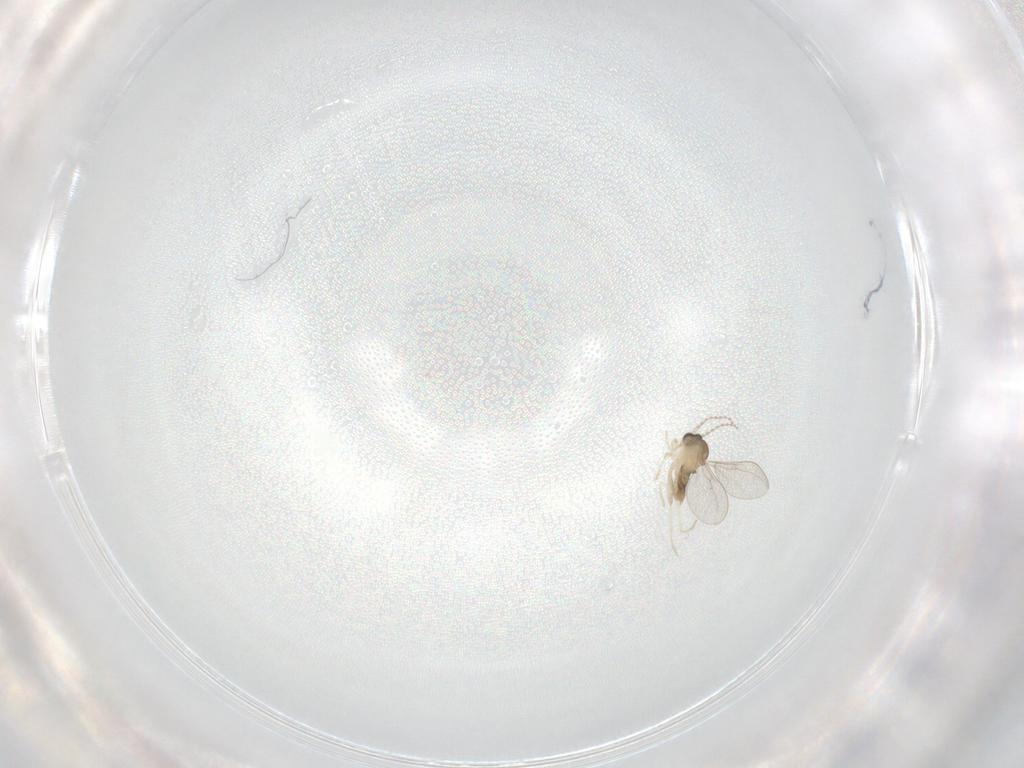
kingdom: Animalia
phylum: Arthropoda
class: Insecta
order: Diptera
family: Cecidomyiidae
